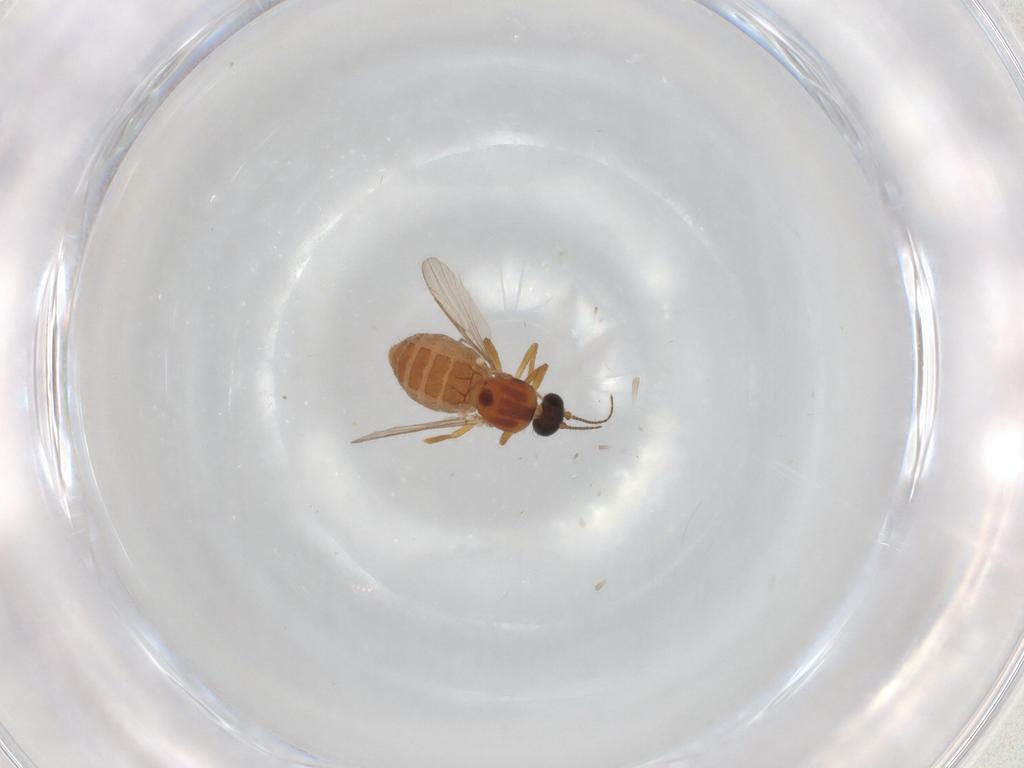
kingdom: Animalia
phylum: Arthropoda
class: Insecta
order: Diptera
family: Ceratopogonidae
